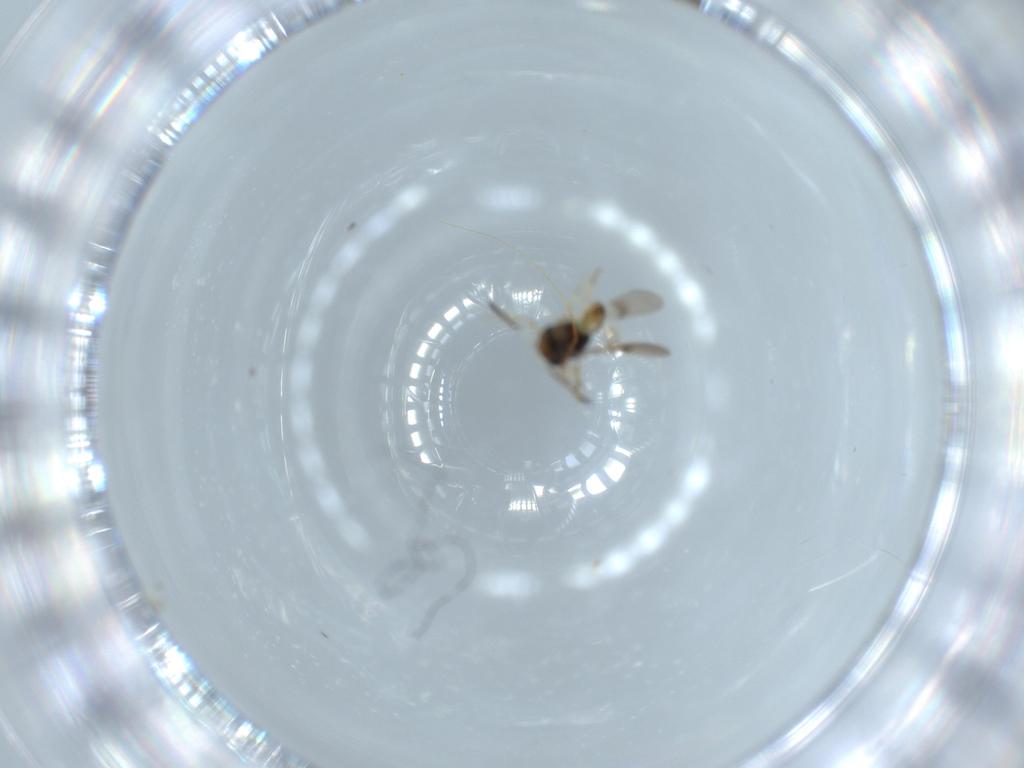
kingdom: Animalia
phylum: Arthropoda
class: Insecta
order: Hymenoptera
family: Scelionidae
